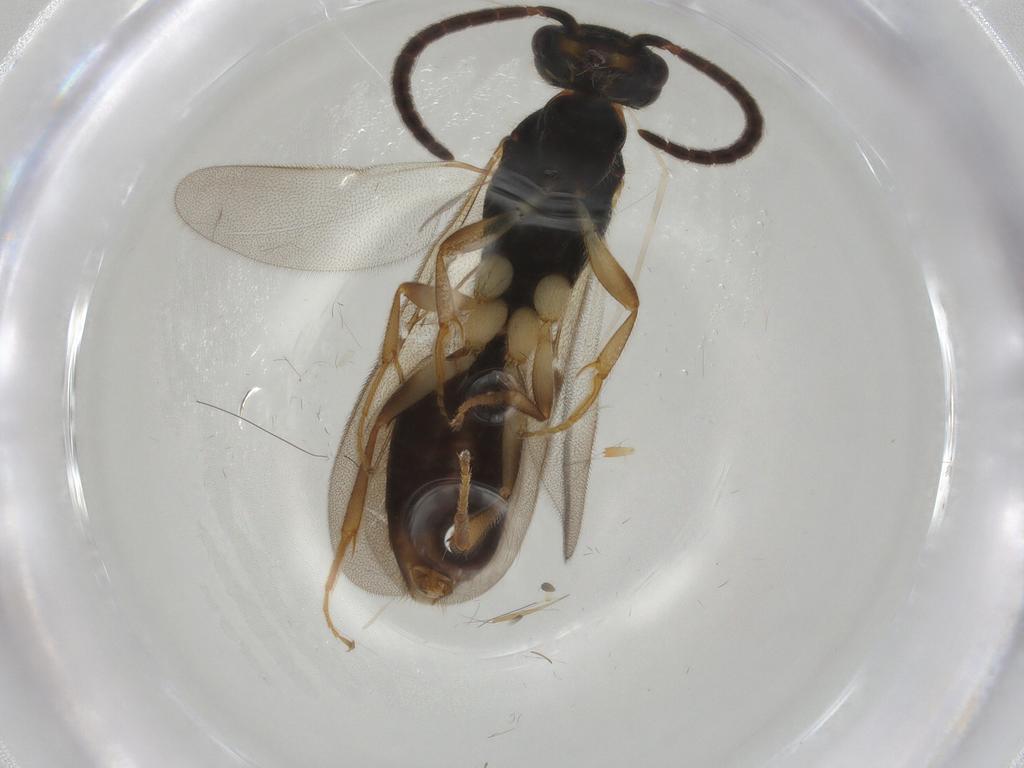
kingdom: Animalia
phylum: Arthropoda
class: Insecta
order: Hymenoptera
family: Bethylidae
